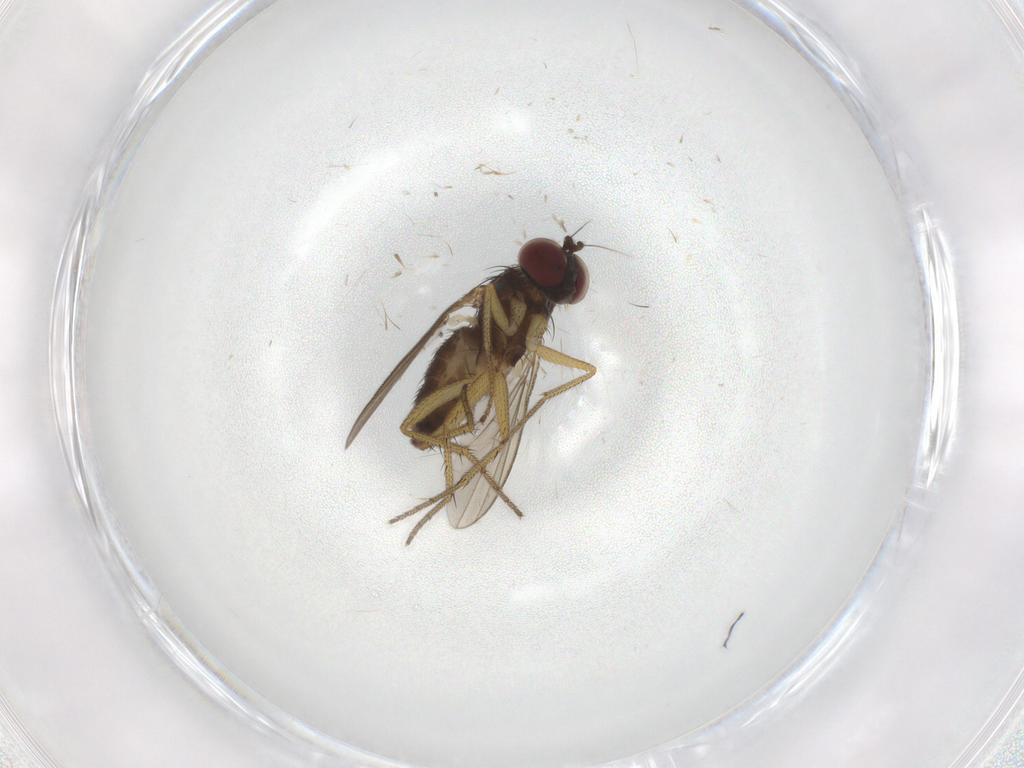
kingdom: Animalia
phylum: Arthropoda
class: Insecta
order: Diptera
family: Dolichopodidae
